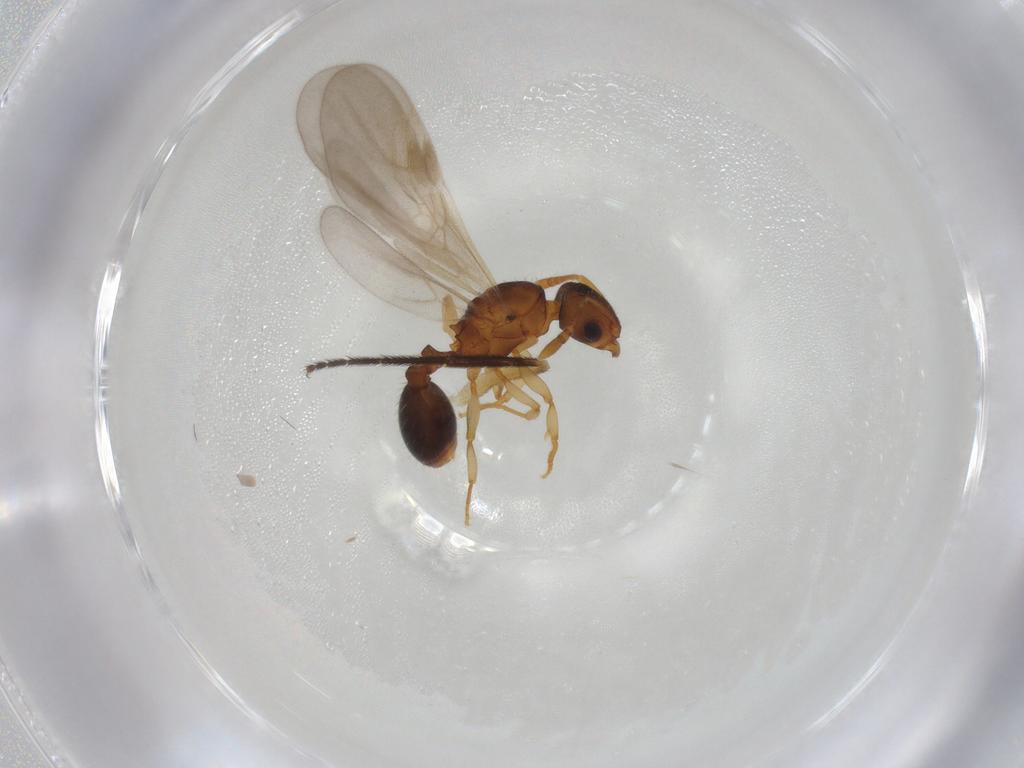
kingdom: Animalia
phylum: Arthropoda
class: Insecta
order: Hymenoptera
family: Formicidae
